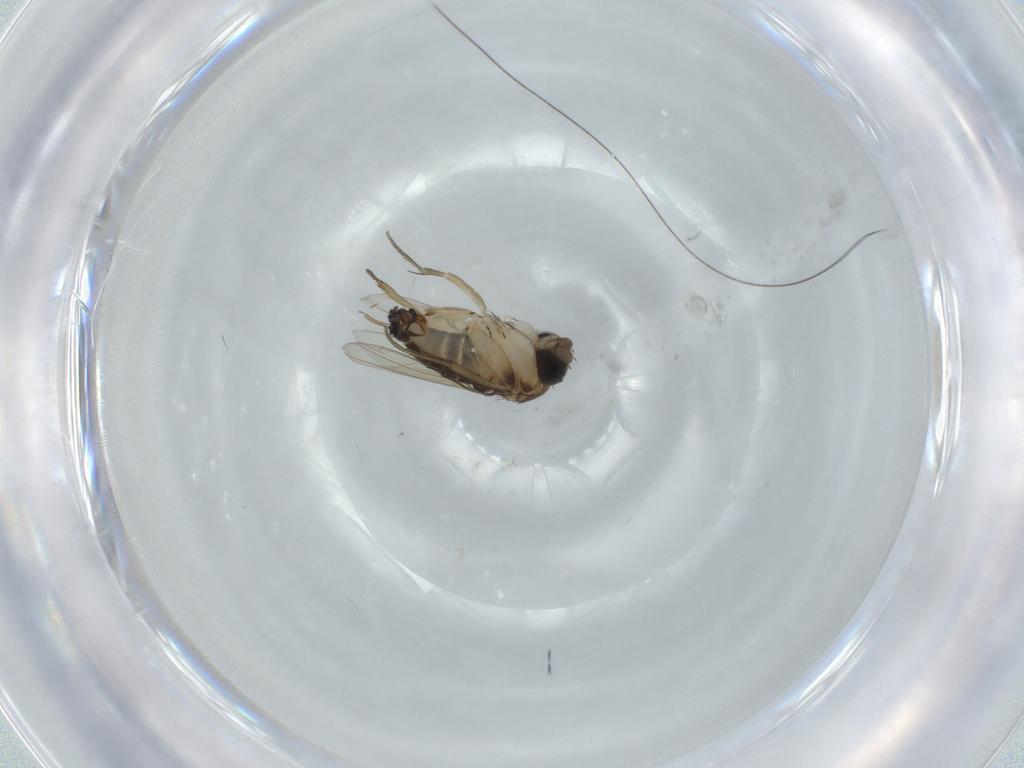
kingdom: Animalia
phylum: Arthropoda
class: Insecta
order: Diptera
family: Phoridae
